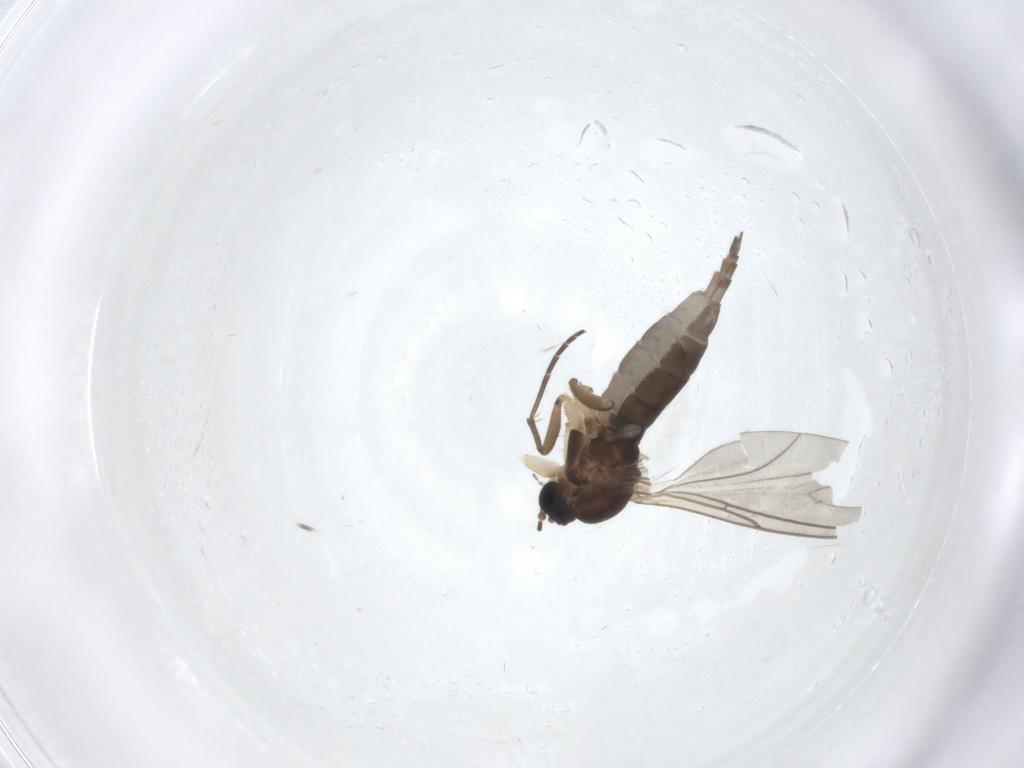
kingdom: Animalia
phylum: Arthropoda
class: Insecta
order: Diptera
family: Sciaridae
